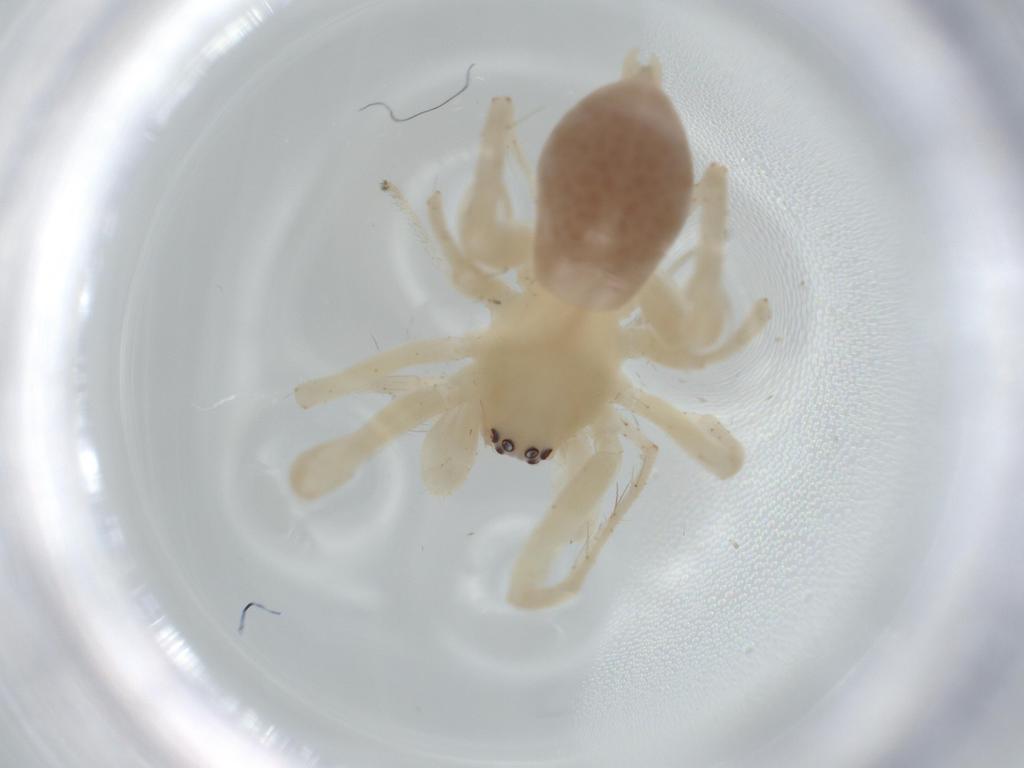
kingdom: Animalia
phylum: Arthropoda
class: Arachnida
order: Araneae
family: Anyphaenidae
